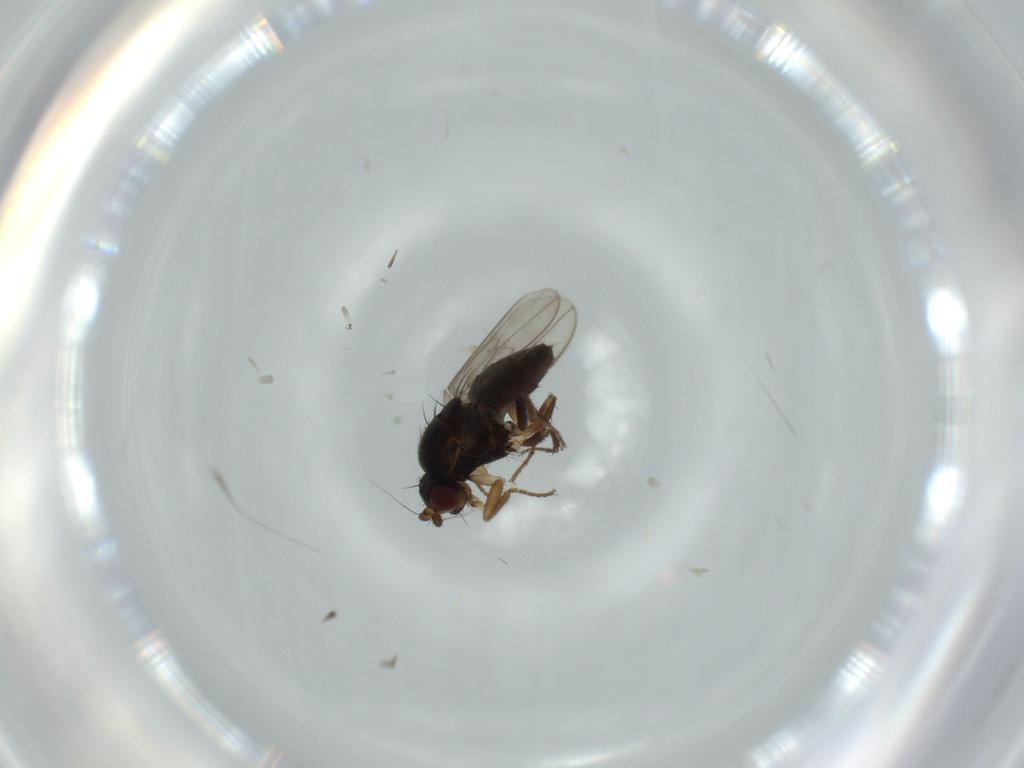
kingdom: Animalia
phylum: Arthropoda
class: Insecta
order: Diptera
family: Sphaeroceridae
